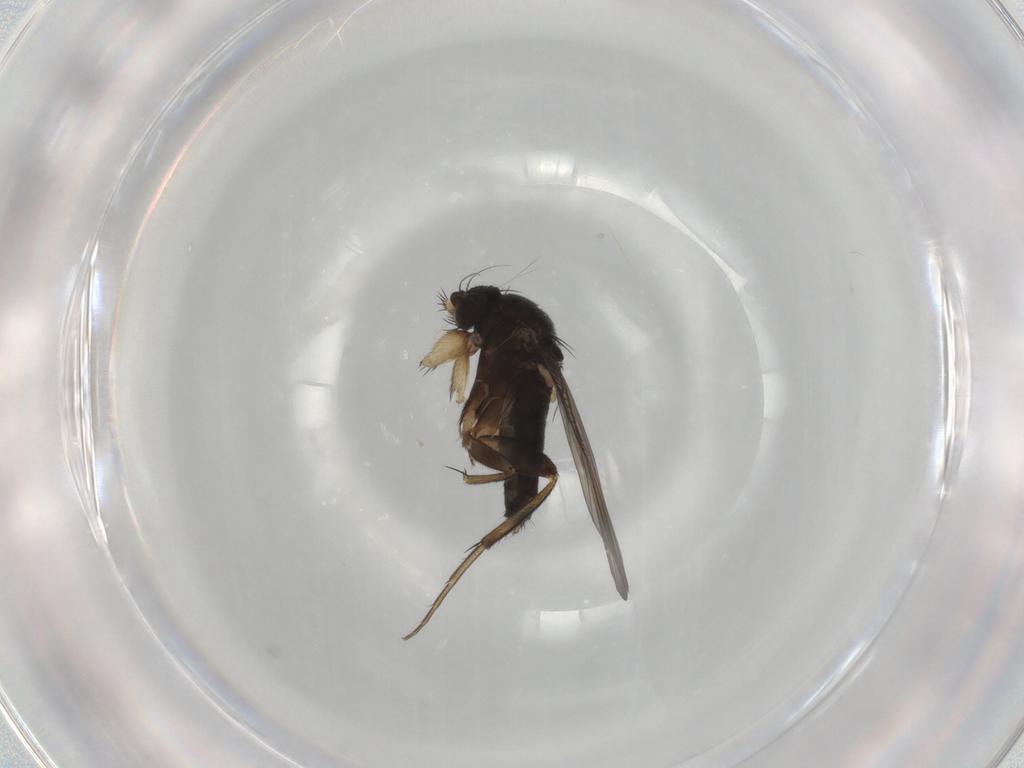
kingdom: Animalia
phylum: Arthropoda
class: Insecta
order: Diptera
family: Phoridae
